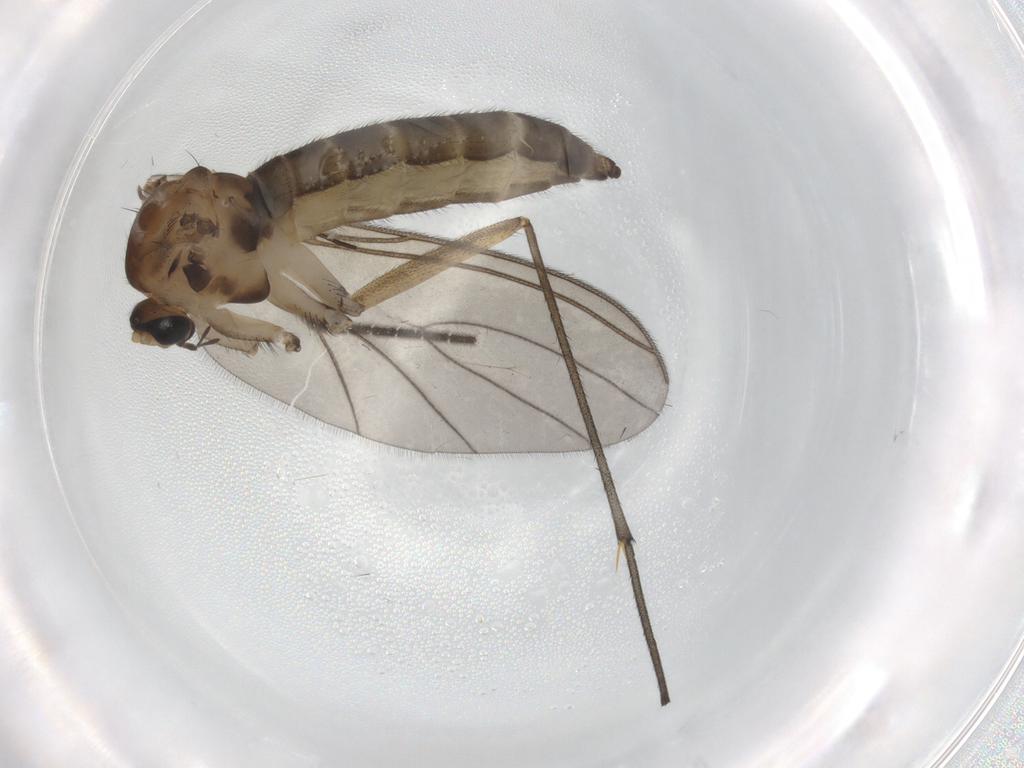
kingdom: Animalia
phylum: Arthropoda
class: Insecta
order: Diptera
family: Sciaridae
